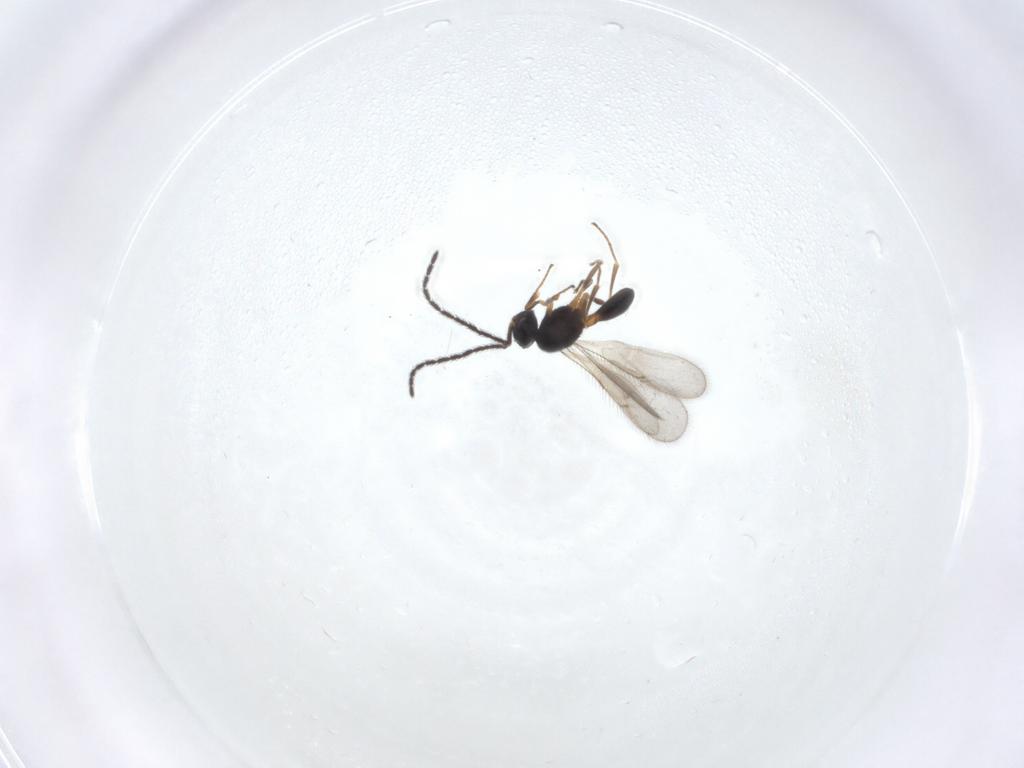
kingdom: Animalia
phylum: Arthropoda
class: Insecta
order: Hymenoptera
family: Scelionidae
